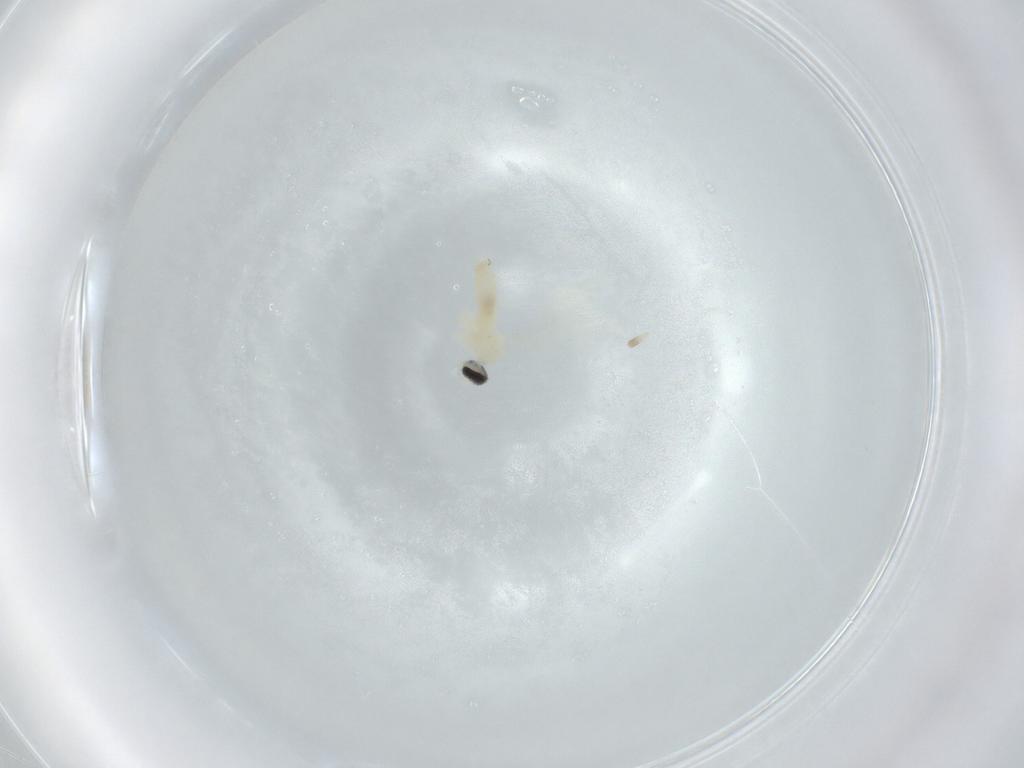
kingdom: Animalia
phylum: Arthropoda
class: Insecta
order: Diptera
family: Cecidomyiidae
